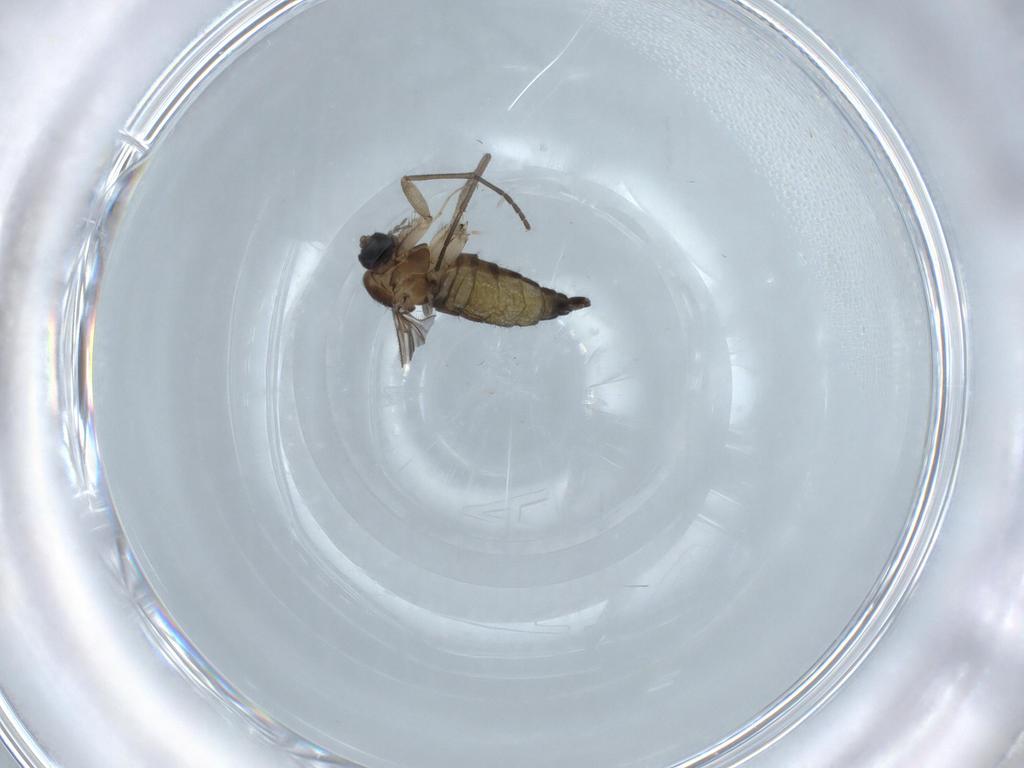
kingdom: Animalia
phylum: Arthropoda
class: Insecta
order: Diptera
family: Sciaridae
